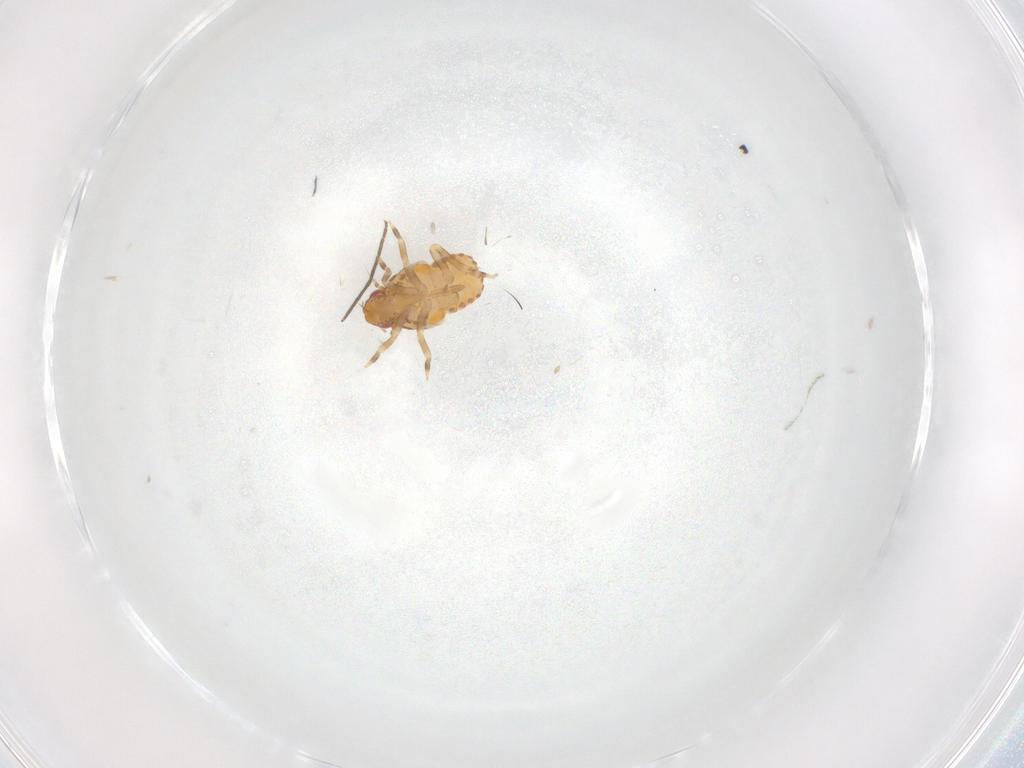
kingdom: Animalia
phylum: Arthropoda
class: Insecta
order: Hemiptera
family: Flatidae
